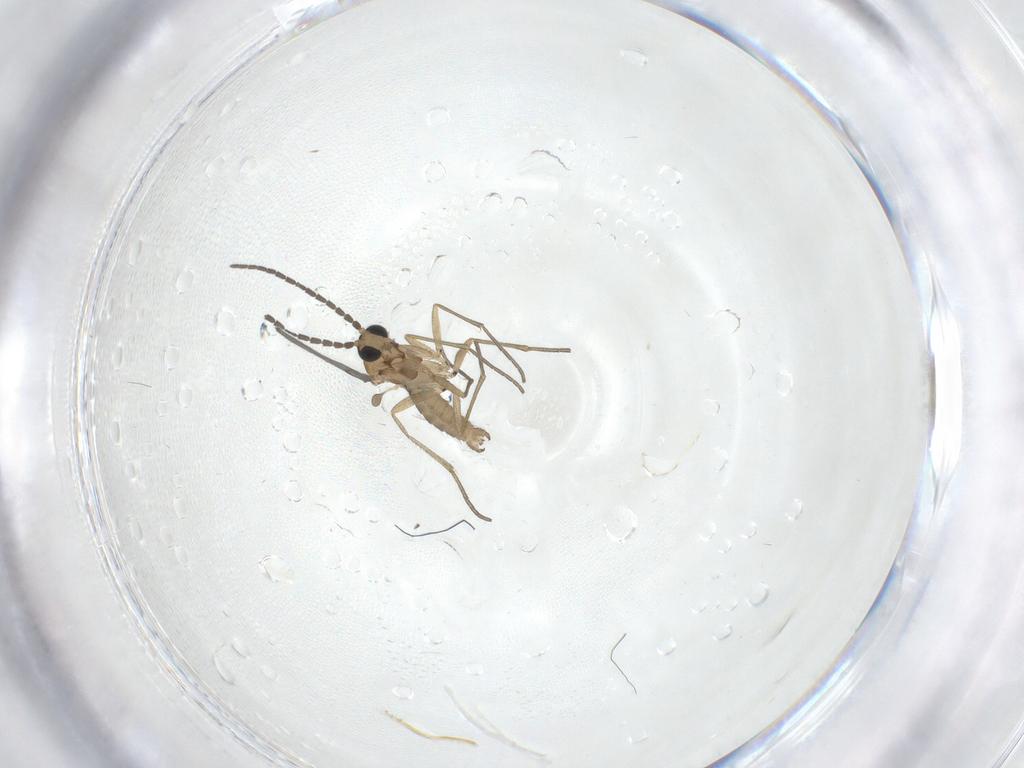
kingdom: Animalia
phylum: Arthropoda
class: Insecta
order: Diptera
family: Sciaridae
